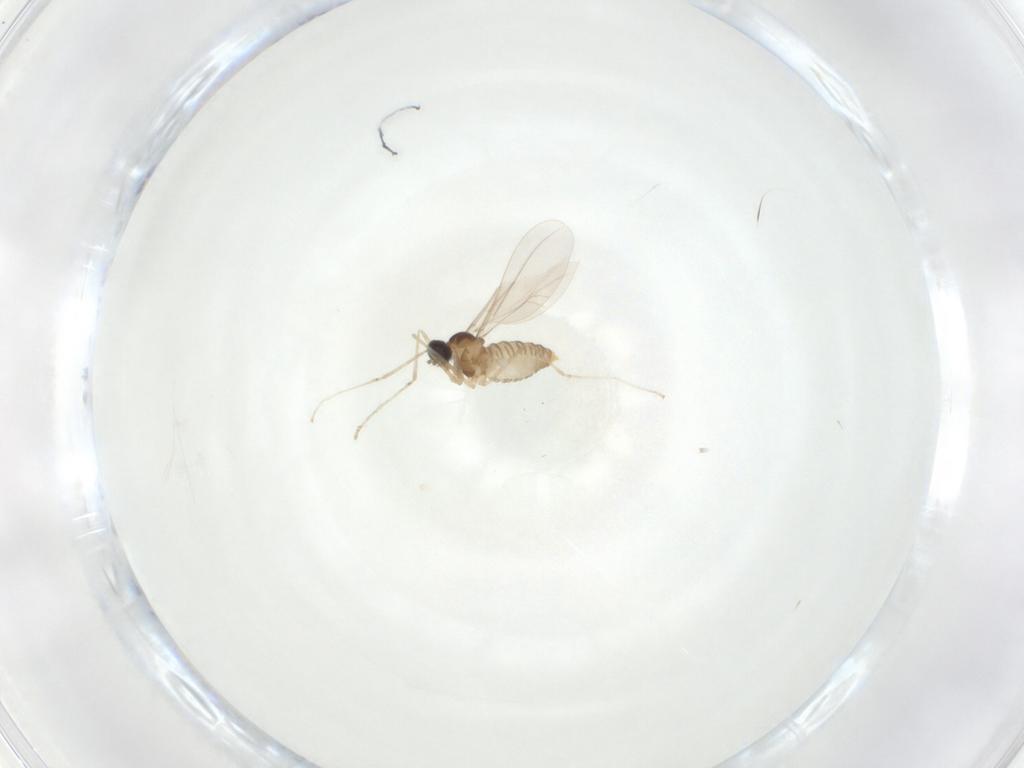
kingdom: Animalia
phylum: Arthropoda
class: Insecta
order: Diptera
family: Cecidomyiidae
